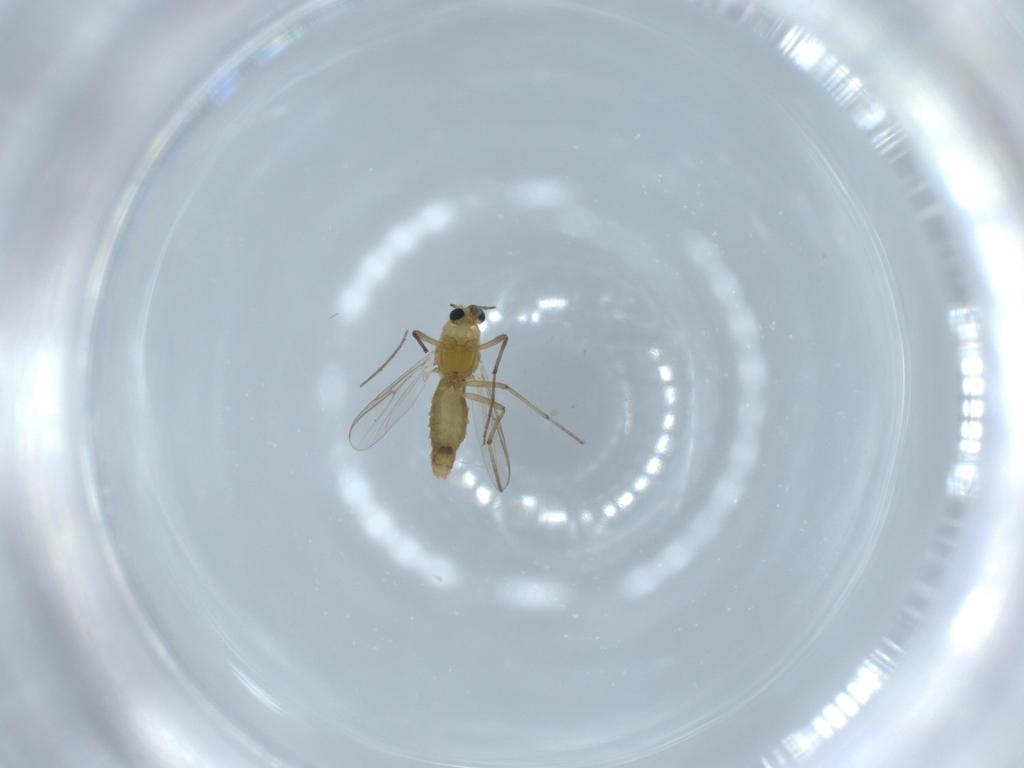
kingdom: Animalia
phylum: Arthropoda
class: Insecta
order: Diptera
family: Chironomidae
